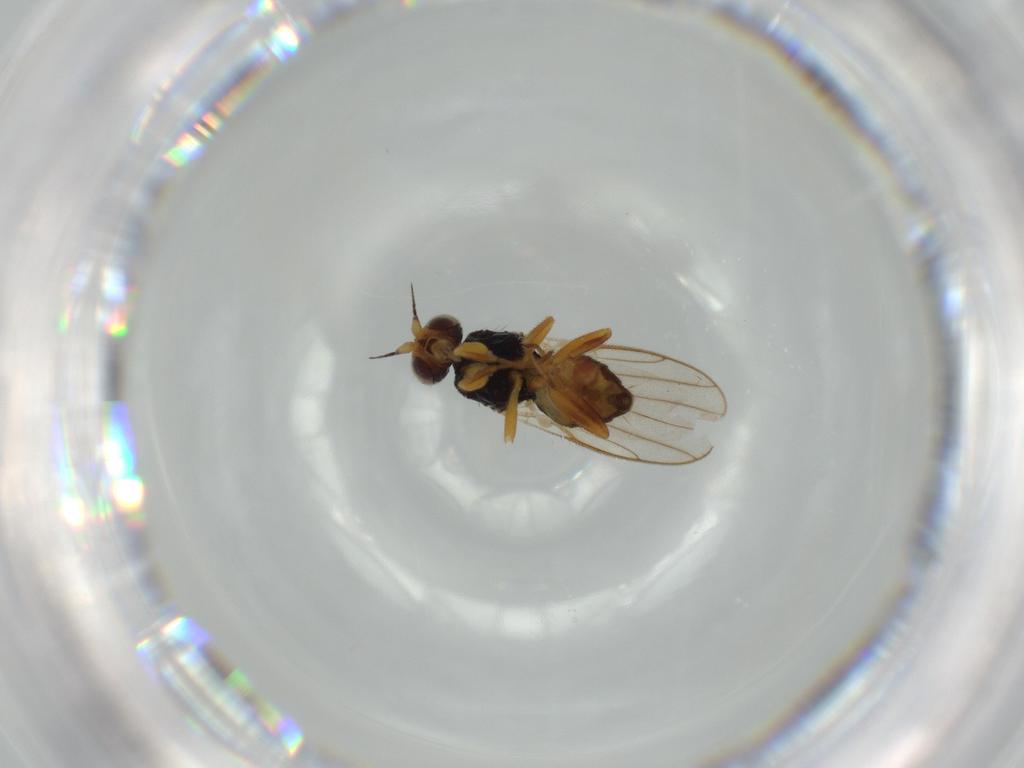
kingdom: Animalia
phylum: Arthropoda
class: Insecta
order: Diptera
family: Chloropidae
